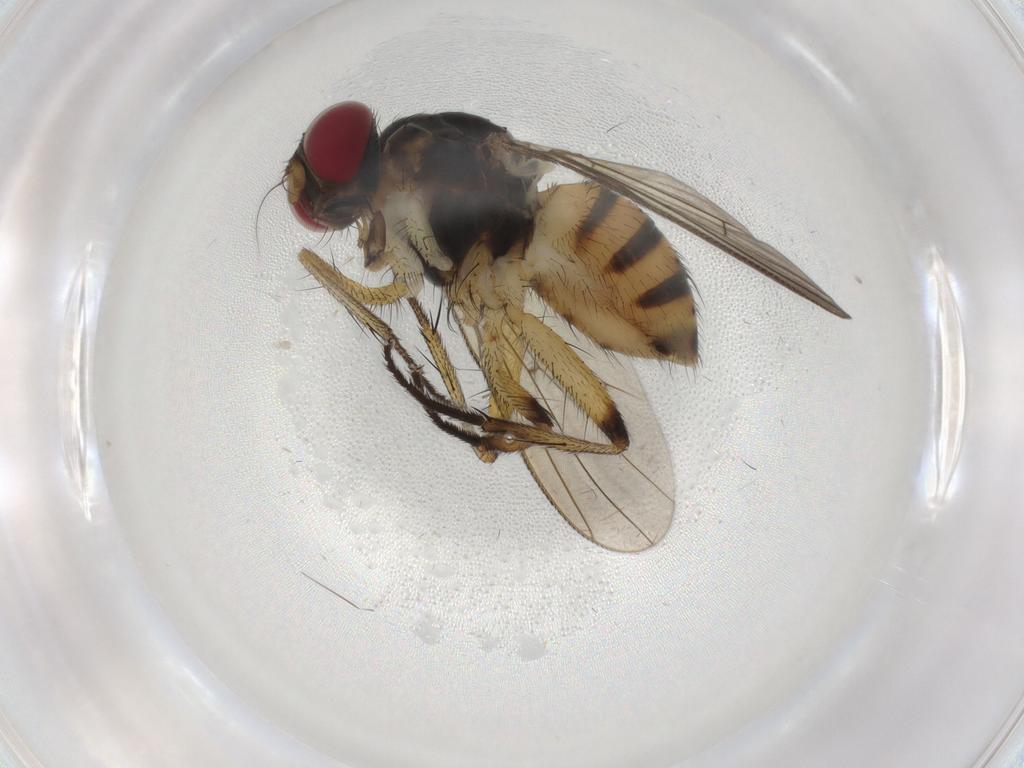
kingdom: Animalia
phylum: Arthropoda
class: Insecta
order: Diptera
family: Muscidae
